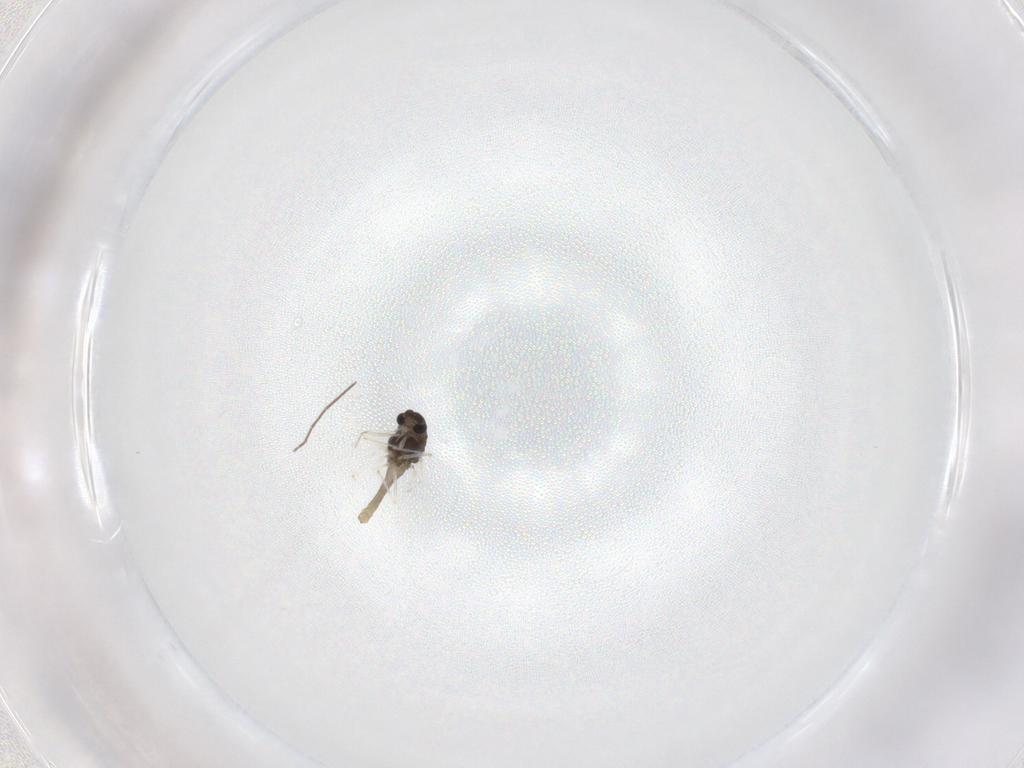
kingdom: Animalia
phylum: Arthropoda
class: Insecta
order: Diptera
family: Chironomidae
